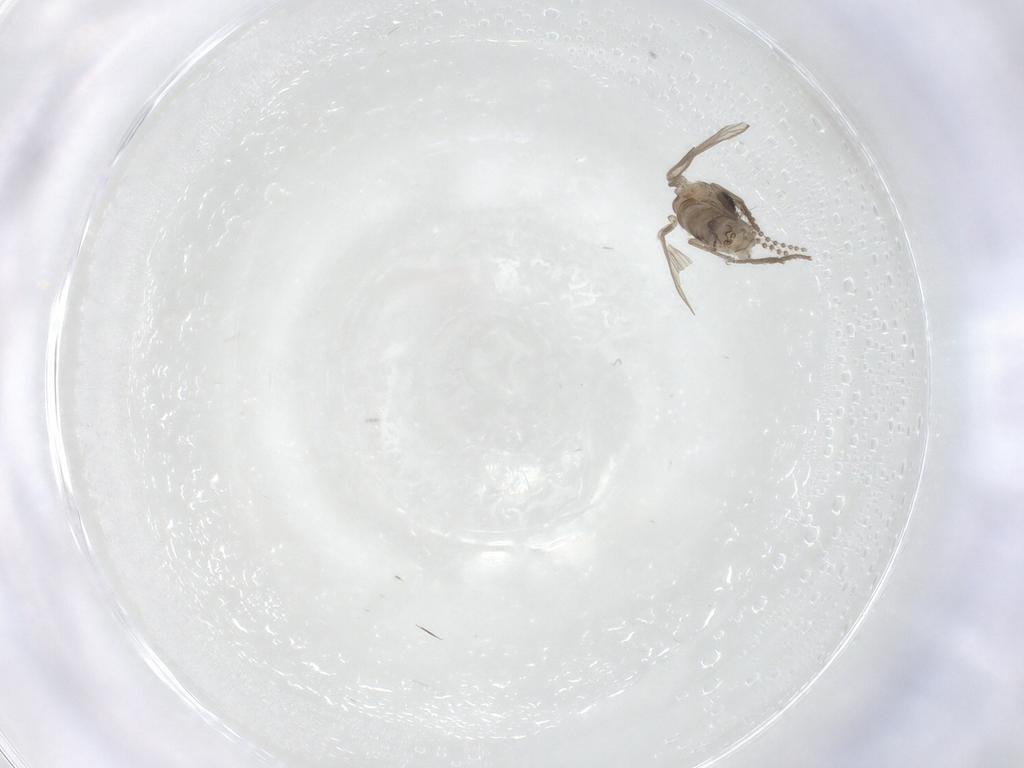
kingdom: Animalia
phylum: Arthropoda
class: Insecta
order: Diptera
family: Psychodidae
